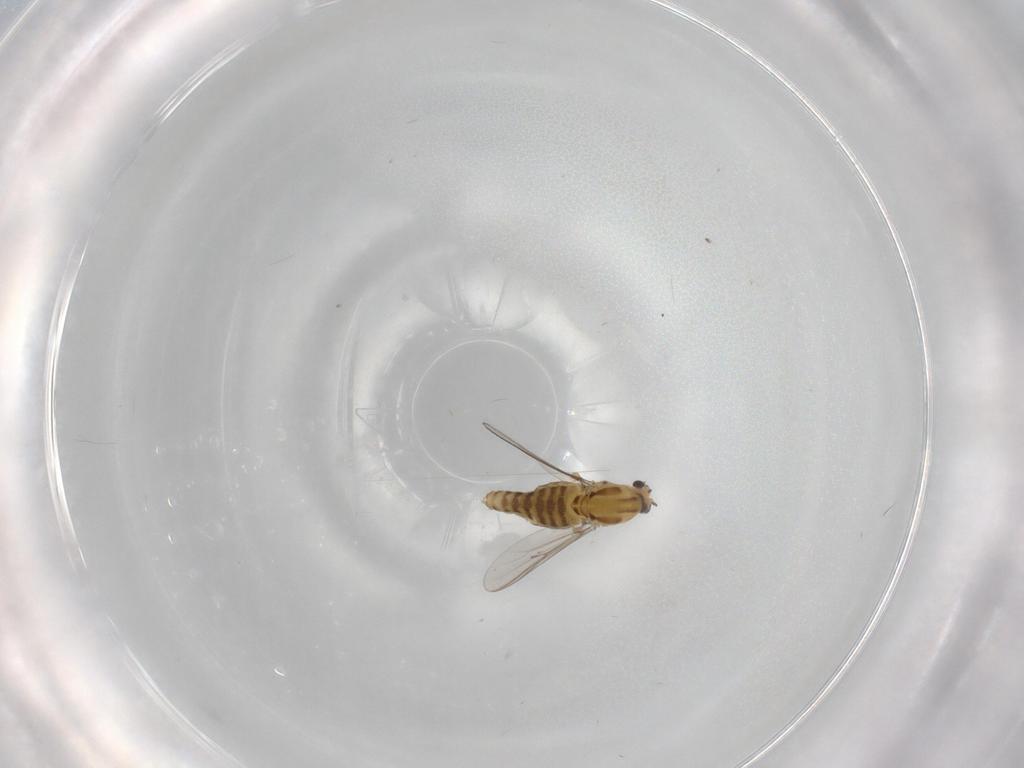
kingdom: Animalia
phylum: Arthropoda
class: Insecta
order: Diptera
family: Chironomidae
